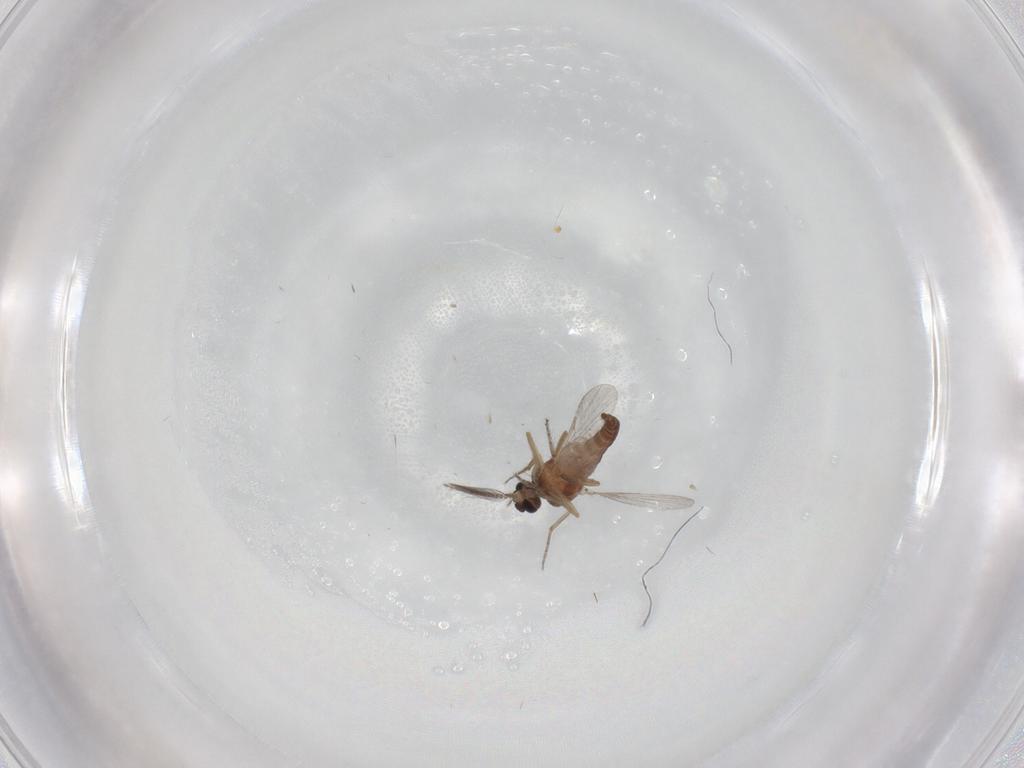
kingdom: Animalia
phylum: Arthropoda
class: Insecta
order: Diptera
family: Ceratopogonidae
